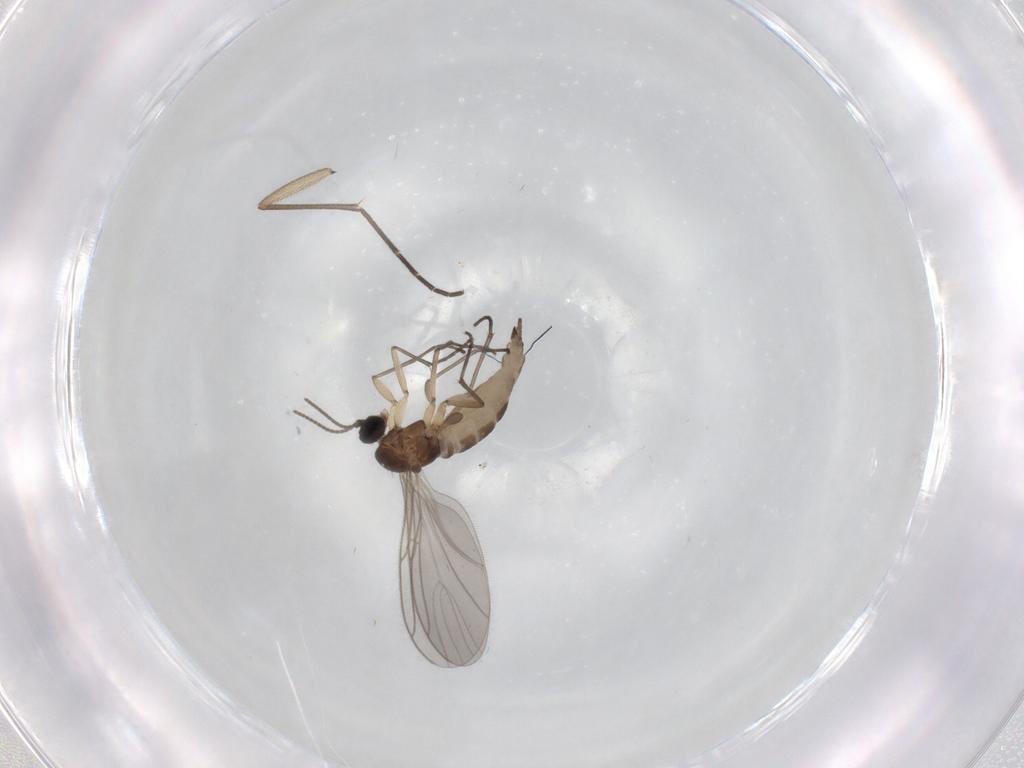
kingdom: Animalia
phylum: Arthropoda
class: Insecta
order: Diptera
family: Sciaridae
